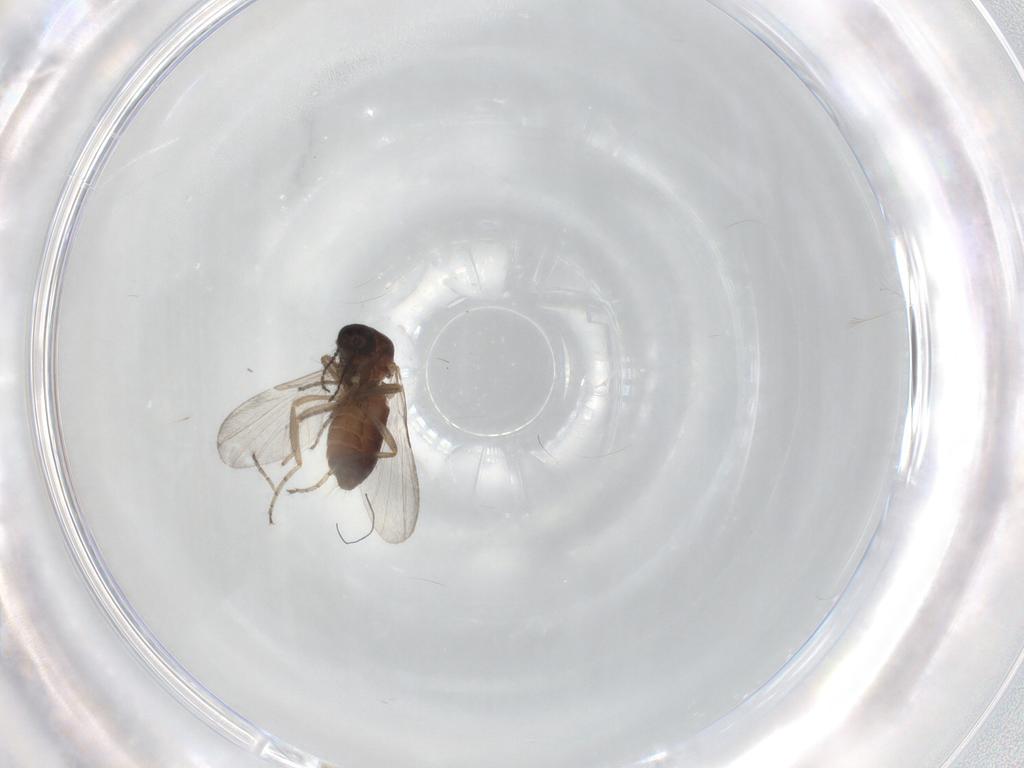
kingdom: Animalia
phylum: Arthropoda
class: Insecta
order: Diptera
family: Ceratopogonidae
